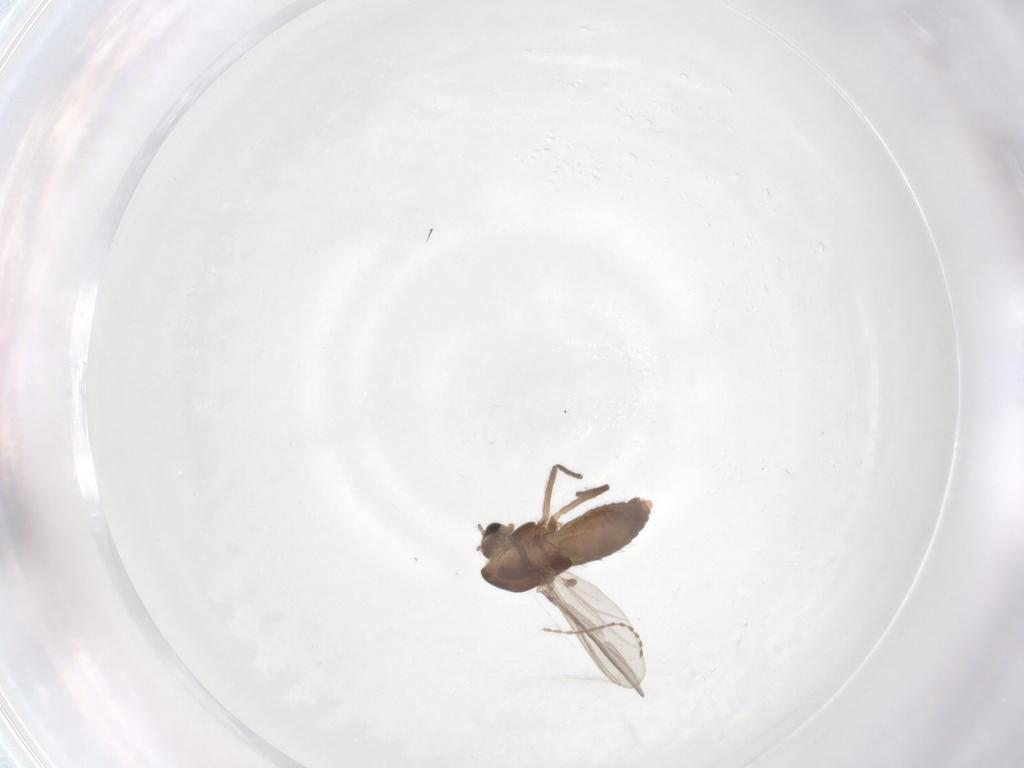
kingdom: Animalia
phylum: Arthropoda
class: Insecta
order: Diptera
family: Chironomidae
